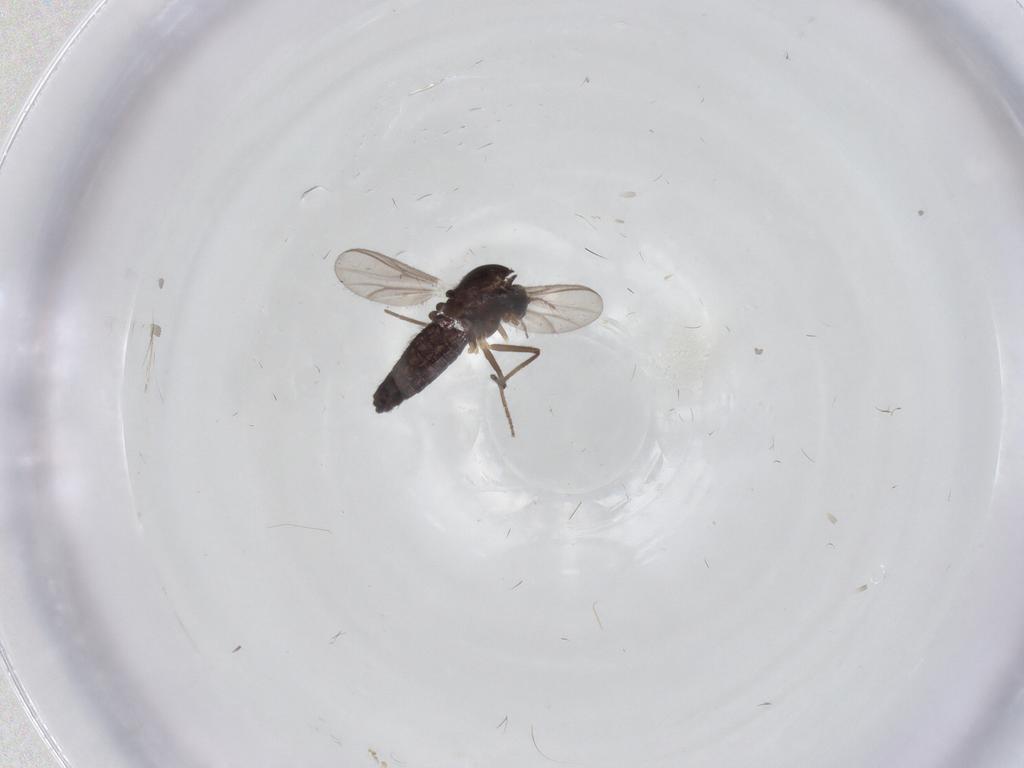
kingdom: Animalia
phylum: Arthropoda
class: Insecta
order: Diptera
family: Chironomidae
